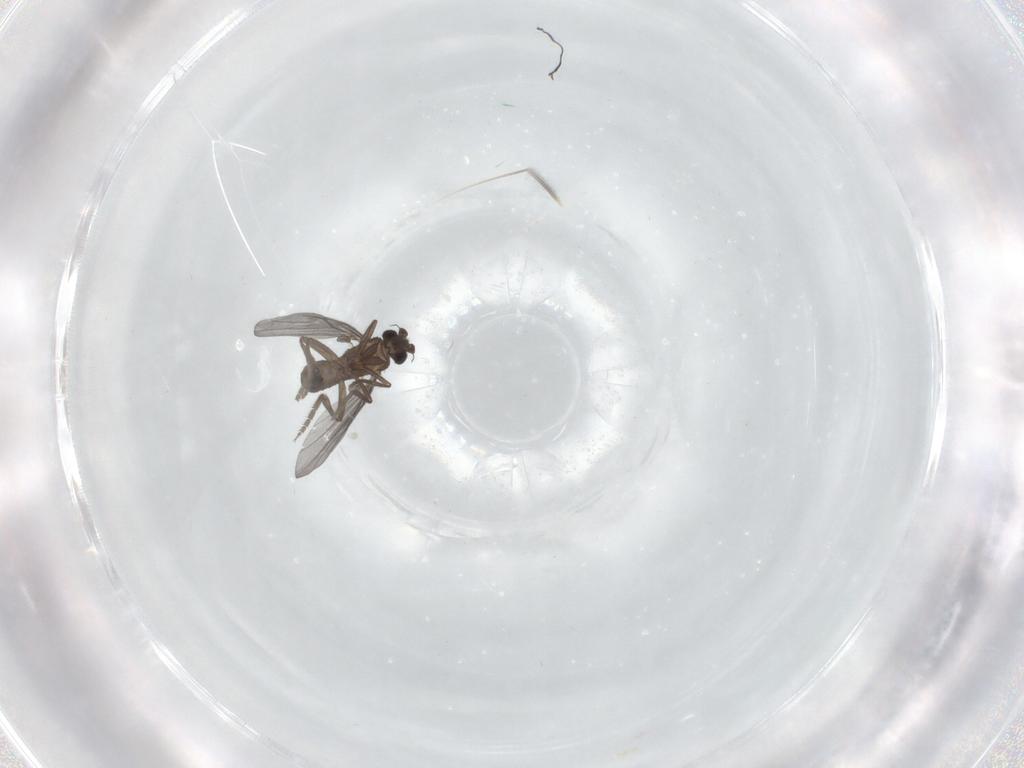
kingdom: Animalia
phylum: Arthropoda
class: Insecta
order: Diptera
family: Phoridae
